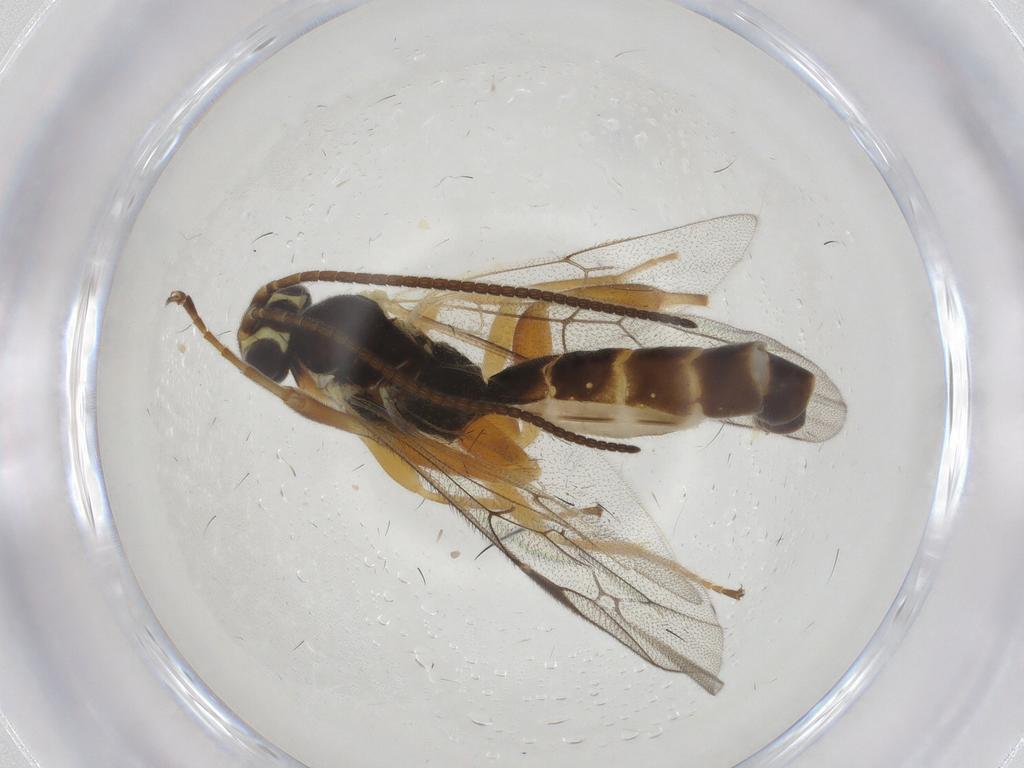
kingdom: Animalia
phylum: Arthropoda
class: Insecta
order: Hymenoptera
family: Ichneumonidae
